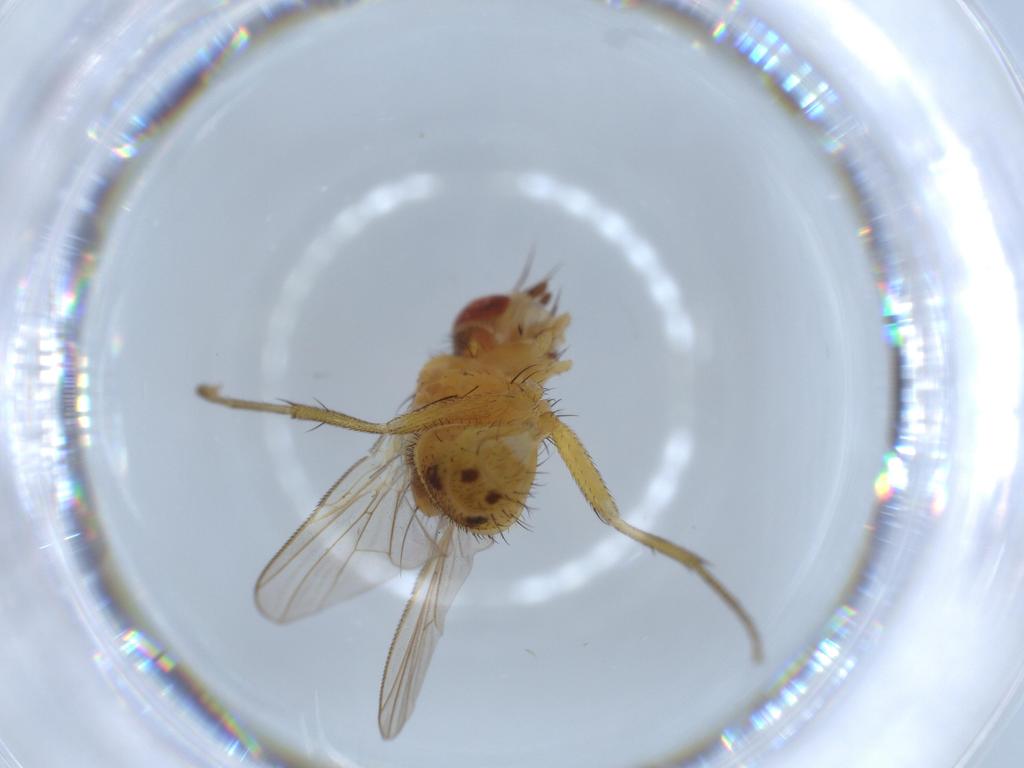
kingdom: Animalia
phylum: Arthropoda
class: Insecta
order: Diptera
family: Muscidae
